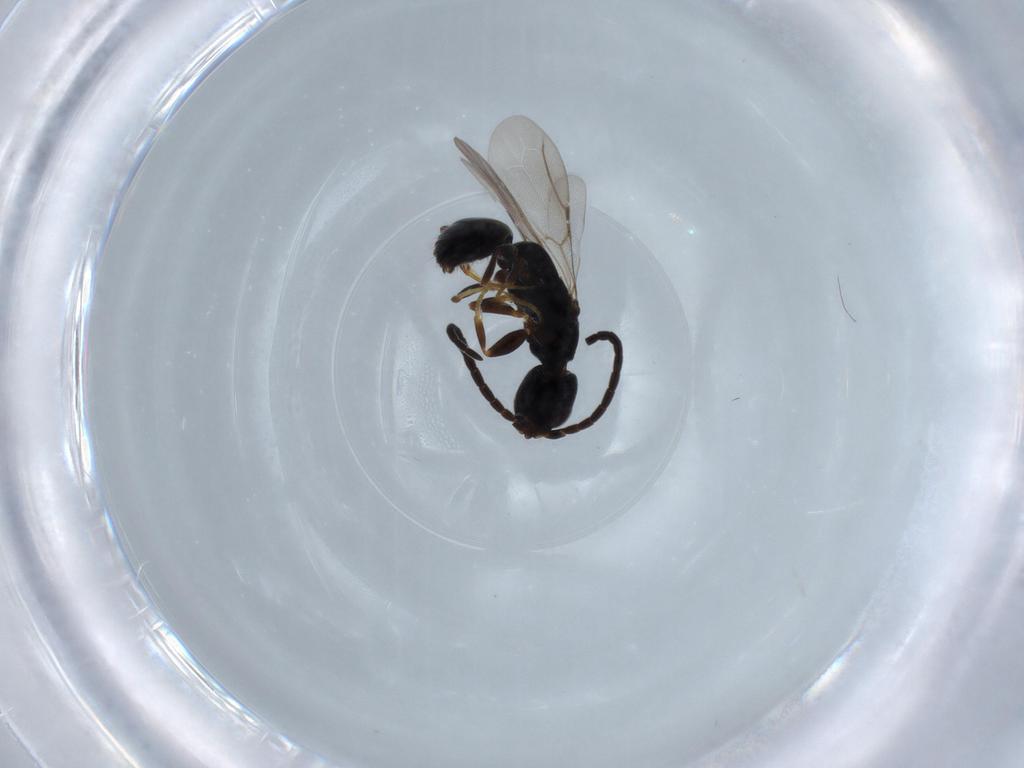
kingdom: Animalia
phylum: Arthropoda
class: Insecta
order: Hymenoptera
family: Bethylidae
